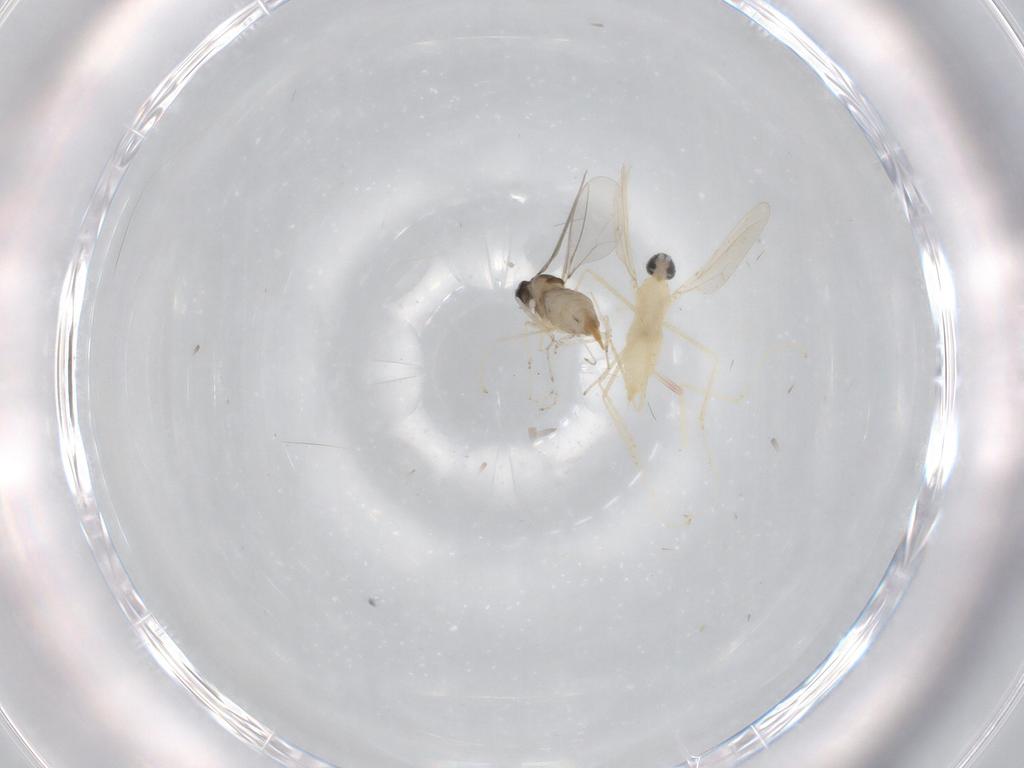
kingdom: Animalia
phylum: Arthropoda
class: Insecta
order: Diptera
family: Cecidomyiidae
